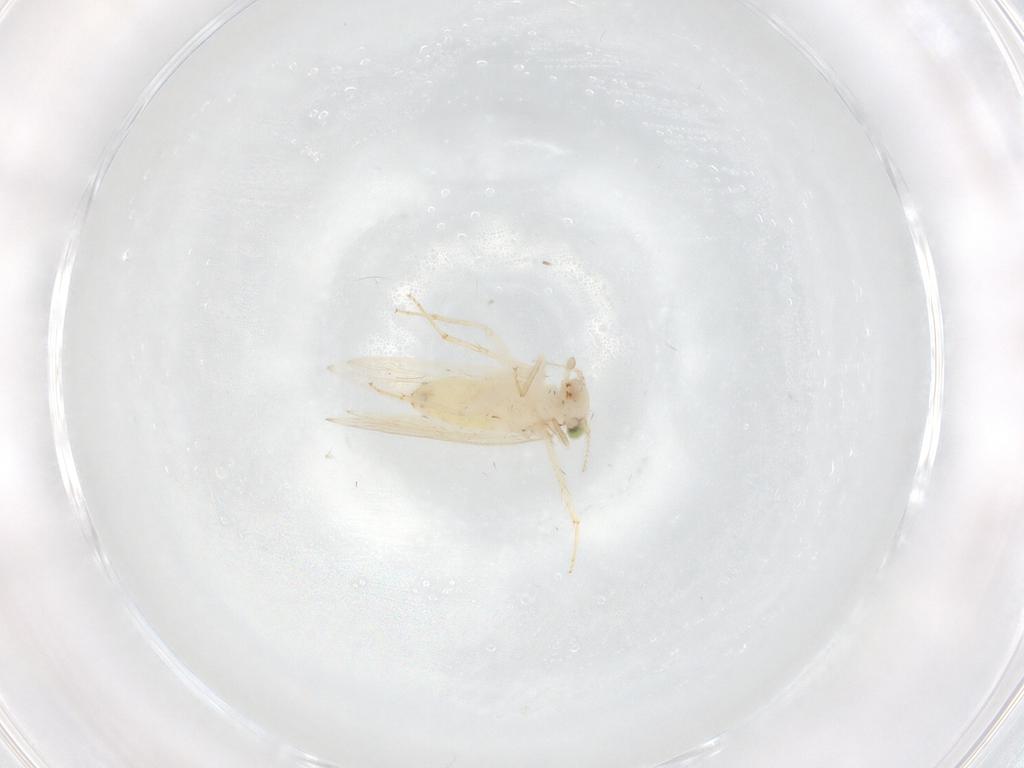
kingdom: Animalia
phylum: Arthropoda
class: Insecta
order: Psocodea
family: Lepidopsocidae
